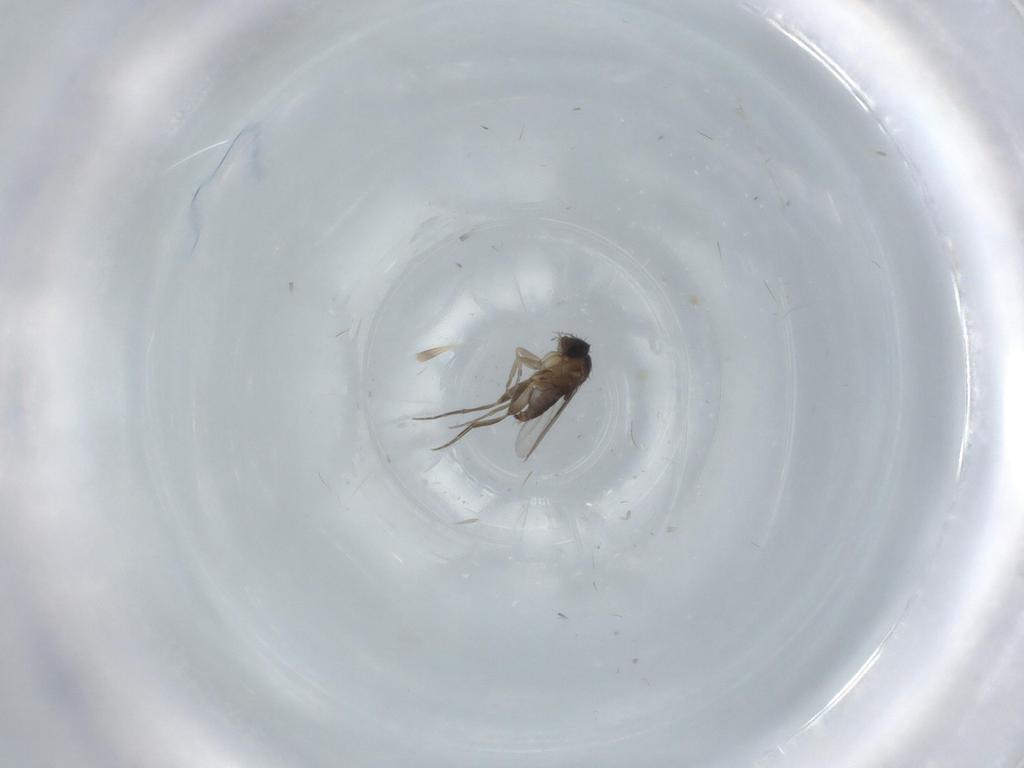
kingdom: Animalia
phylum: Arthropoda
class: Insecta
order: Diptera
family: Phoridae
